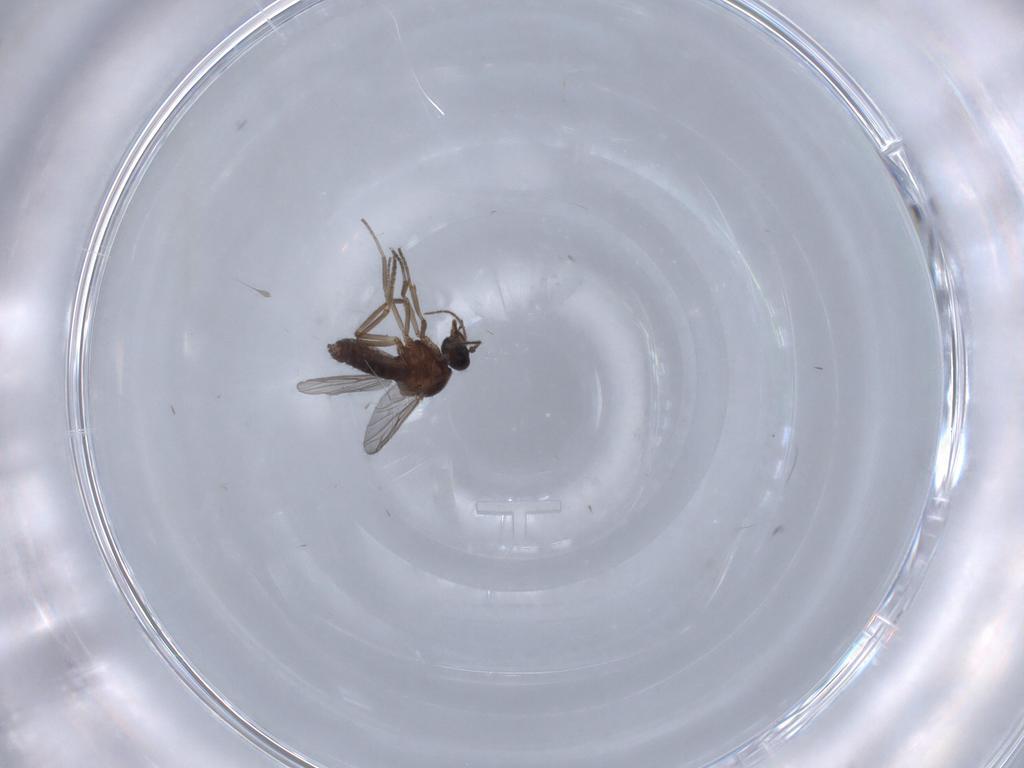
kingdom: Animalia
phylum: Arthropoda
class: Insecta
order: Diptera
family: Ceratopogonidae
